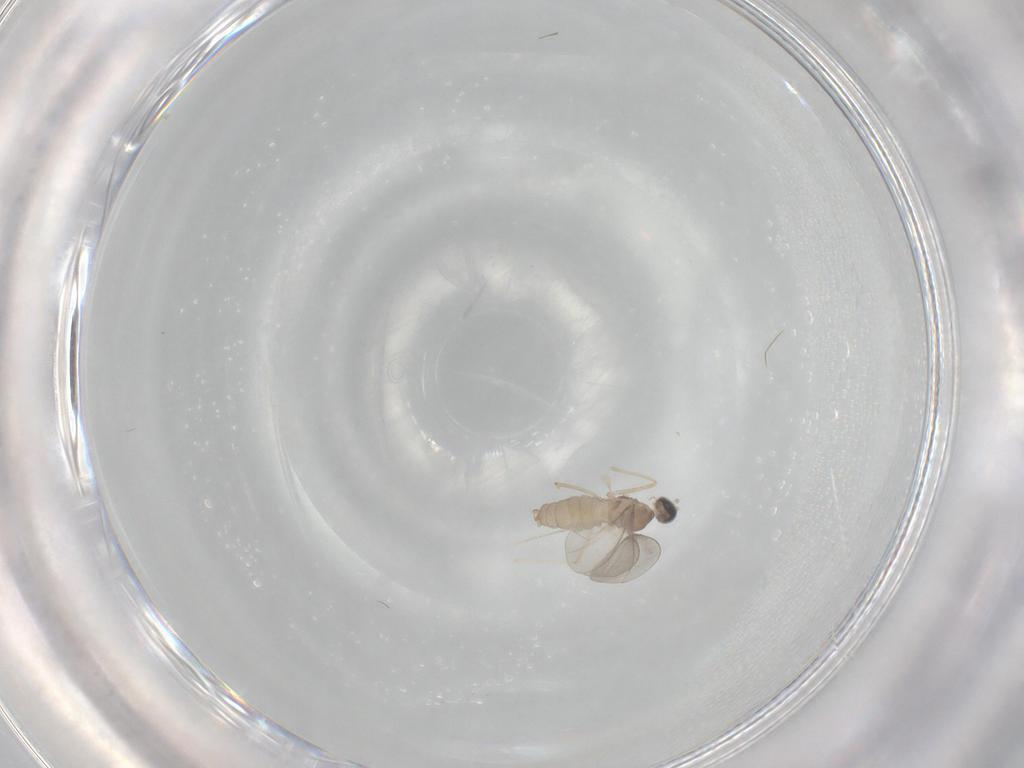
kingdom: Animalia
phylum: Arthropoda
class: Insecta
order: Diptera
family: Cecidomyiidae
